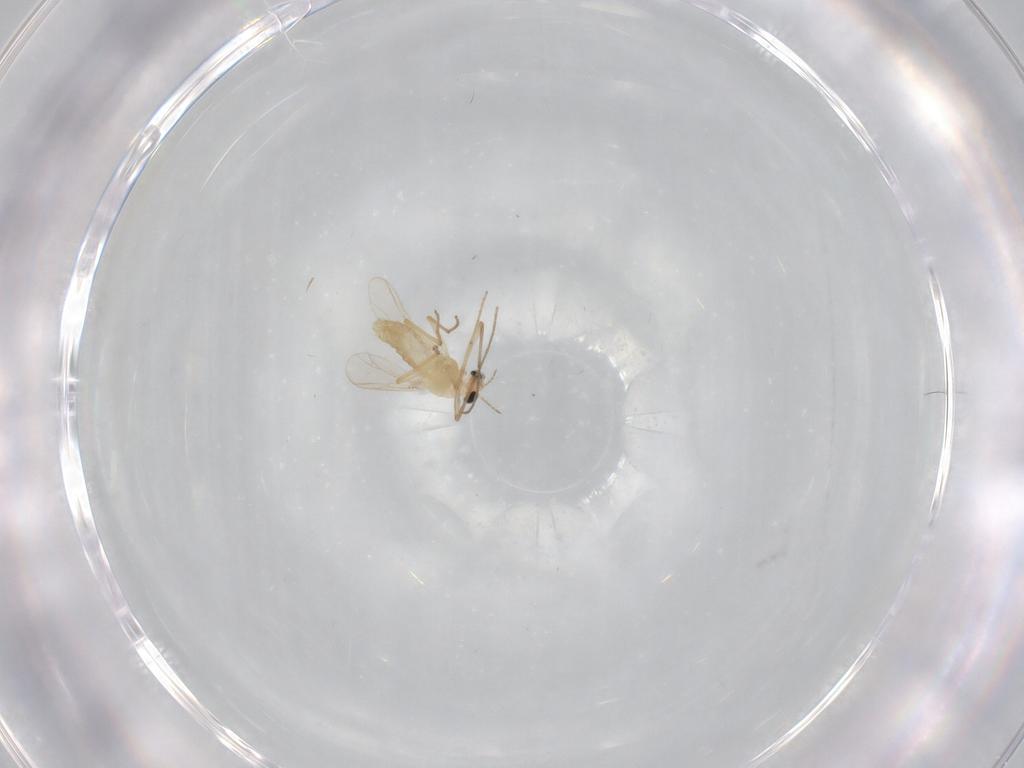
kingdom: Animalia
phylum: Arthropoda
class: Insecta
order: Diptera
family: Chironomidae
